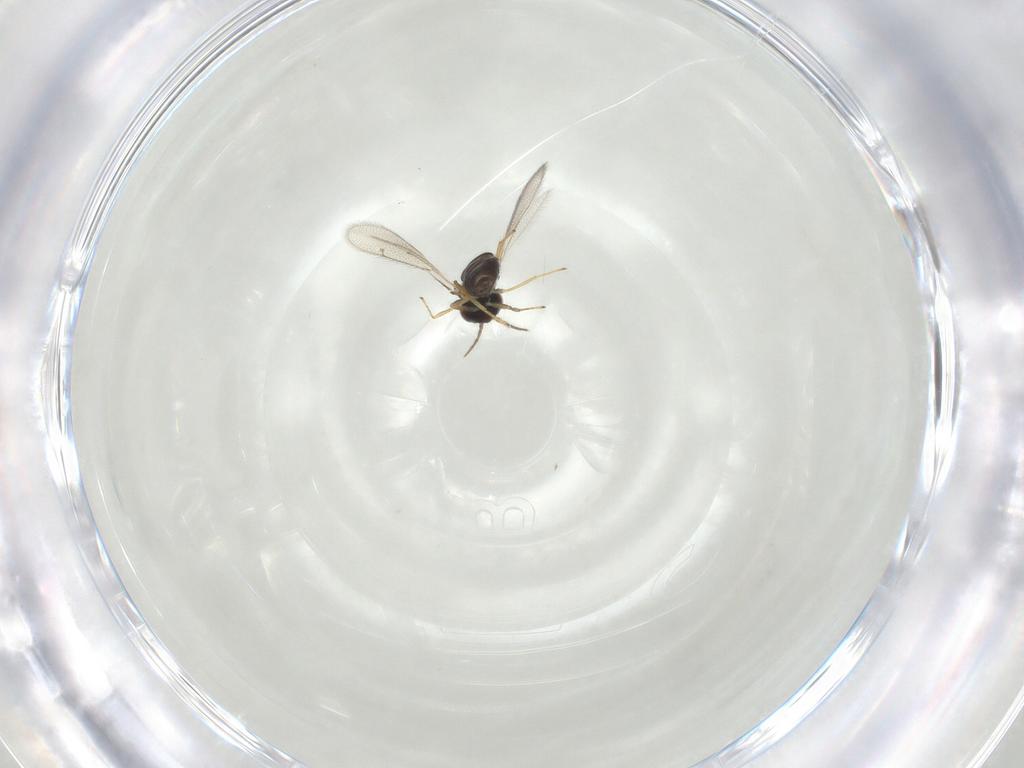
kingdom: Animalia
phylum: Arthropoda
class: Insecta
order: Hymenoptera
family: Eulophidae
